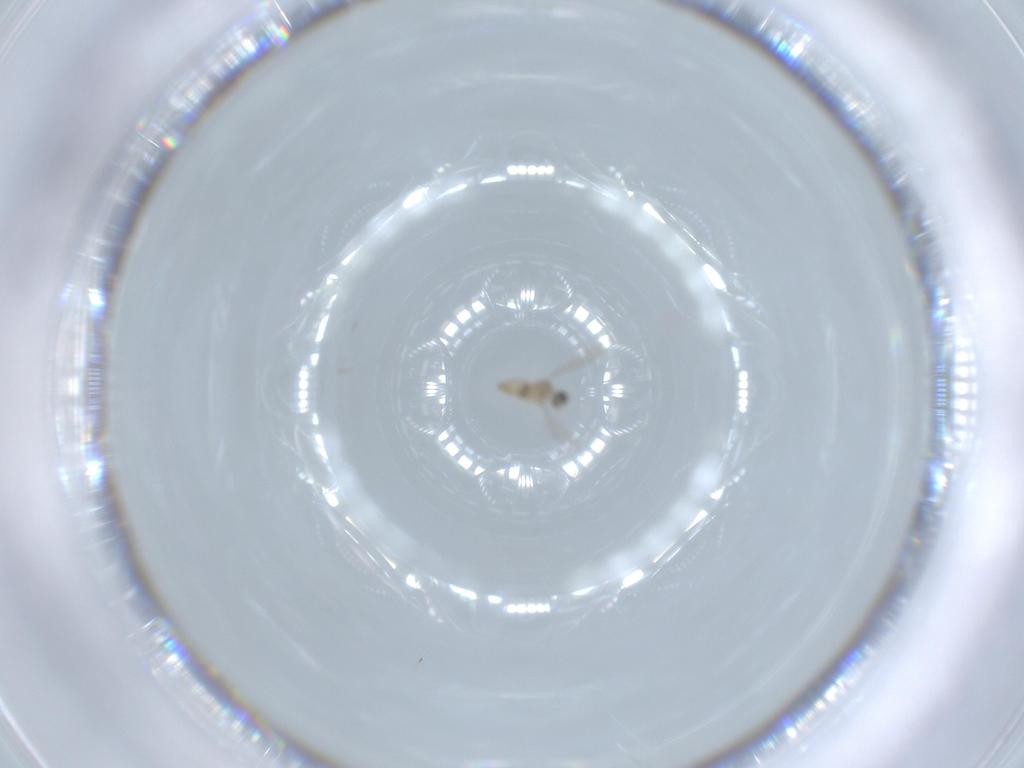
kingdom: Animalia
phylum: Arthropoda
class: Insecta
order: Diptera
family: Cecidomyiidae
